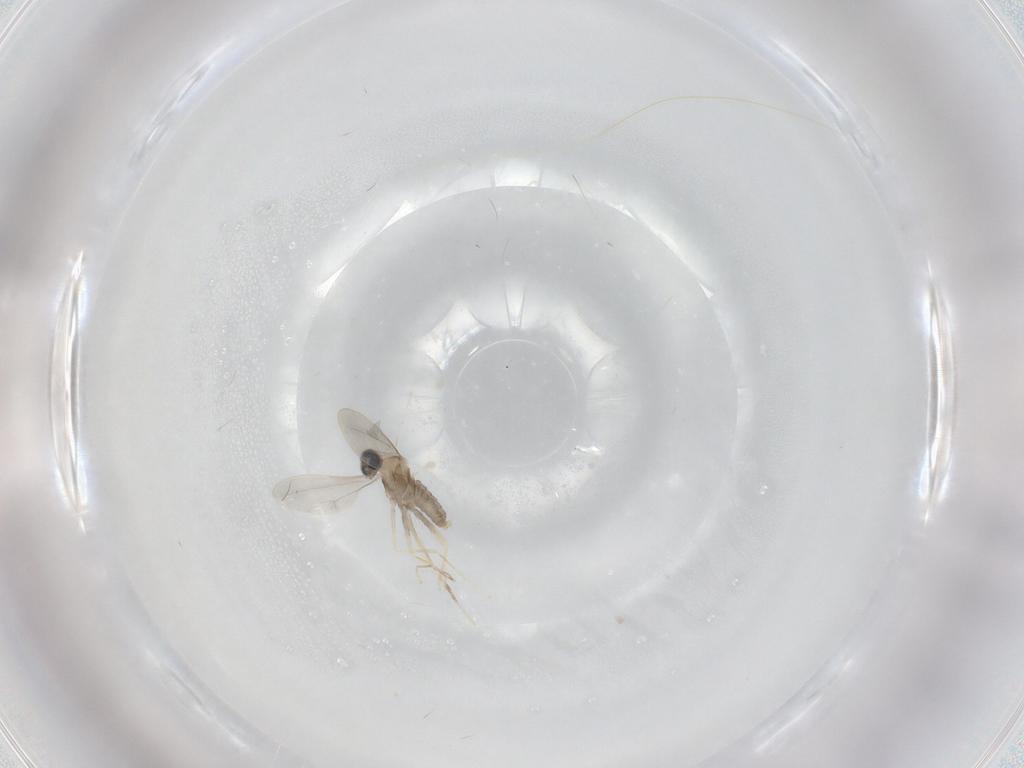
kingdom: Animalia
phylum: Arthropoda
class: Insecta
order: Diptera
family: Cecidomyiidae
